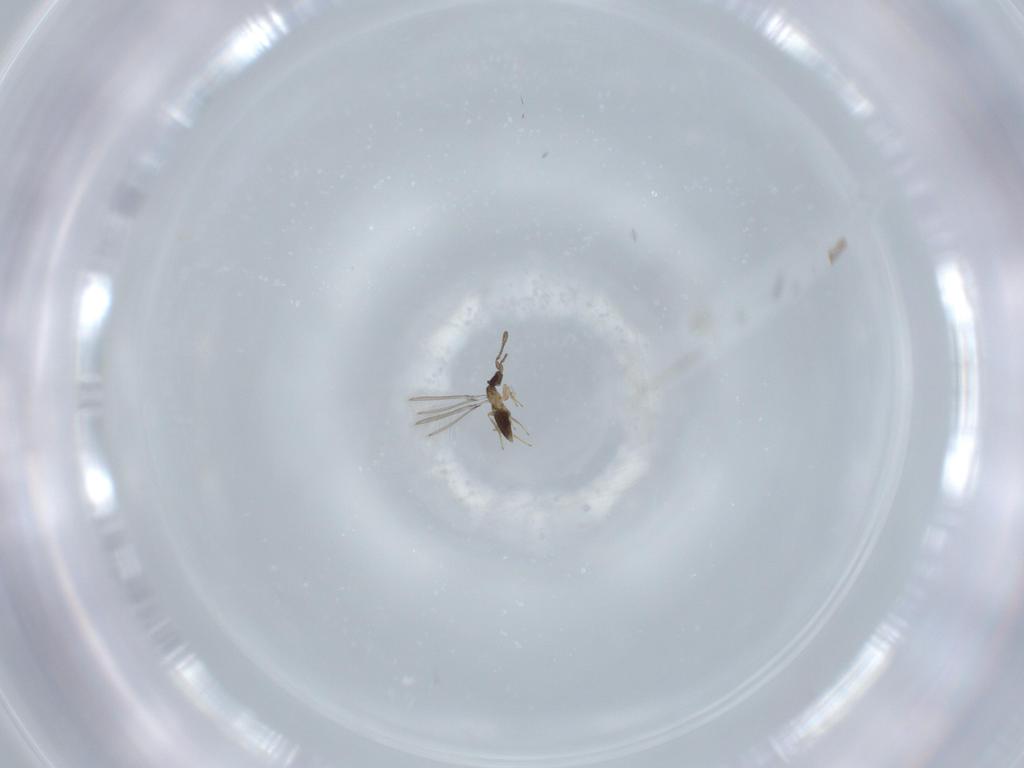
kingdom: Animalia
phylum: Arthropoda
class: Insecta
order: Hymenoptera
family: Mymaridae
